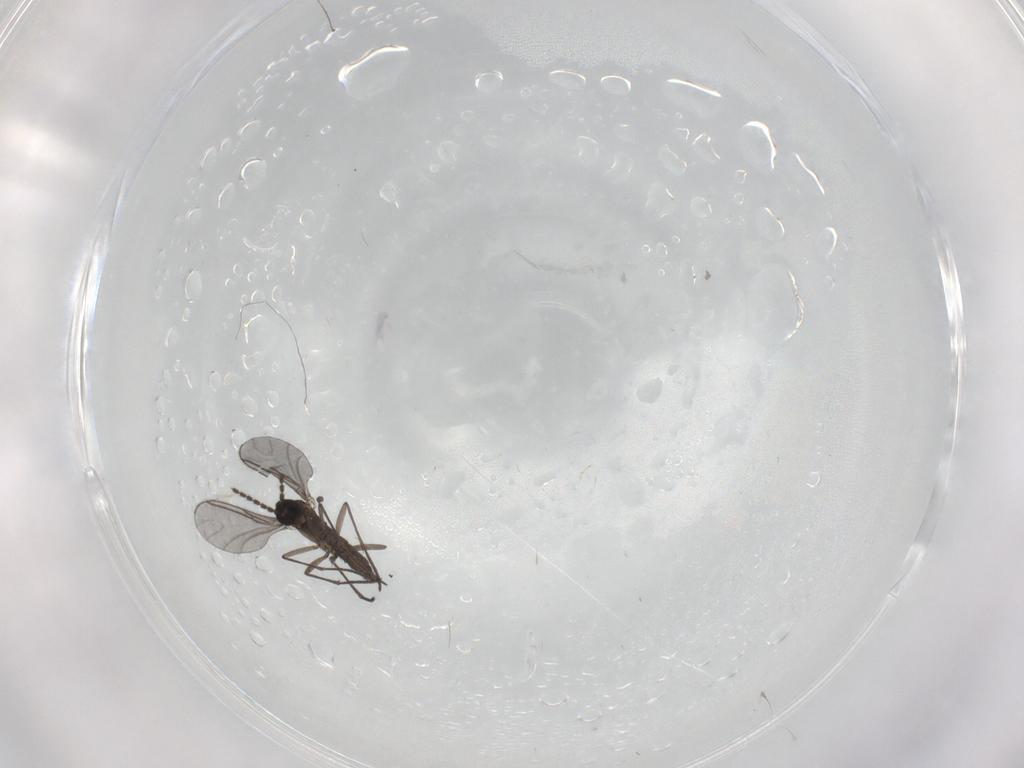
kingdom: Animalia
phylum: Arthropoda
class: Insecta
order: Diptera
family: Cecidomyiidae
